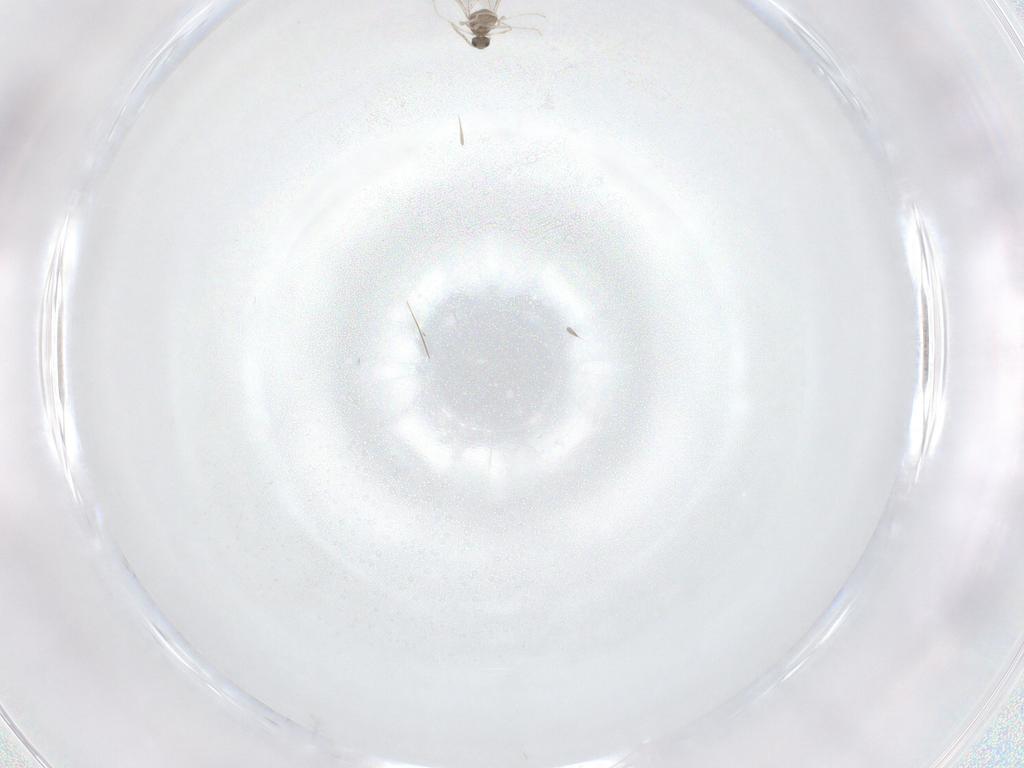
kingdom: Animalia
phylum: Arthropoda
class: Insecta
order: Diptera
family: Cecidomyiidae
